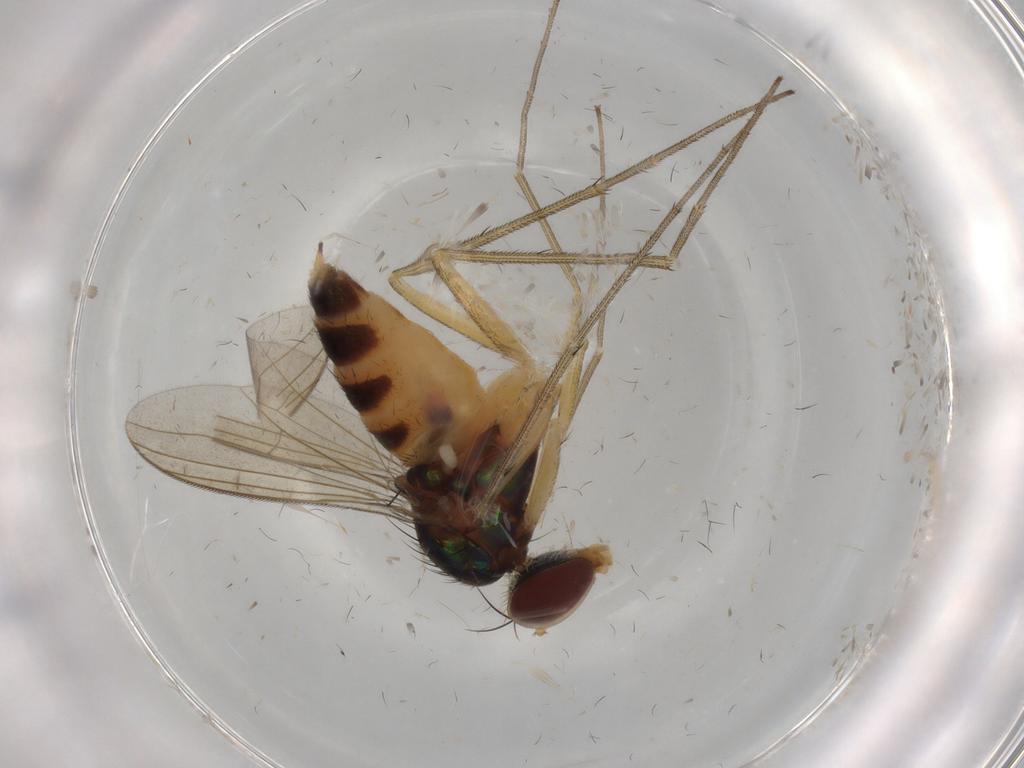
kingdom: Animalia
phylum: Arthropoda
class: Insecta
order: Diptera
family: Dolichopodidae
